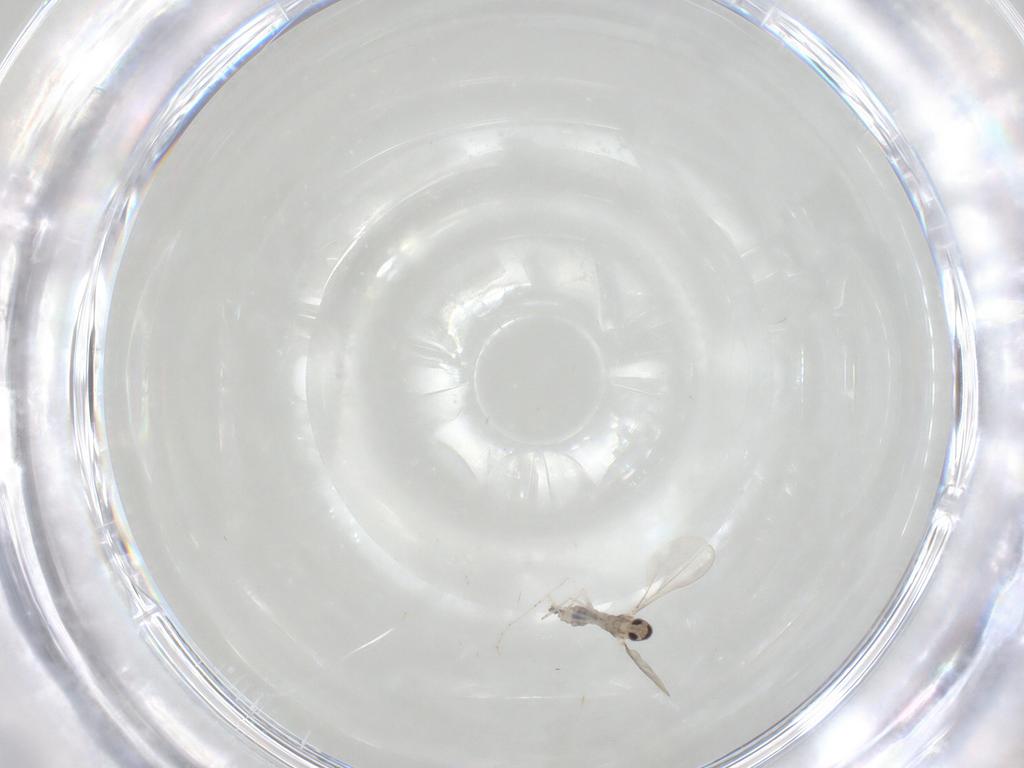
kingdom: Animalia
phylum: Arthropoda
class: Insecta
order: Diptera
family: Cecidomyiidae
